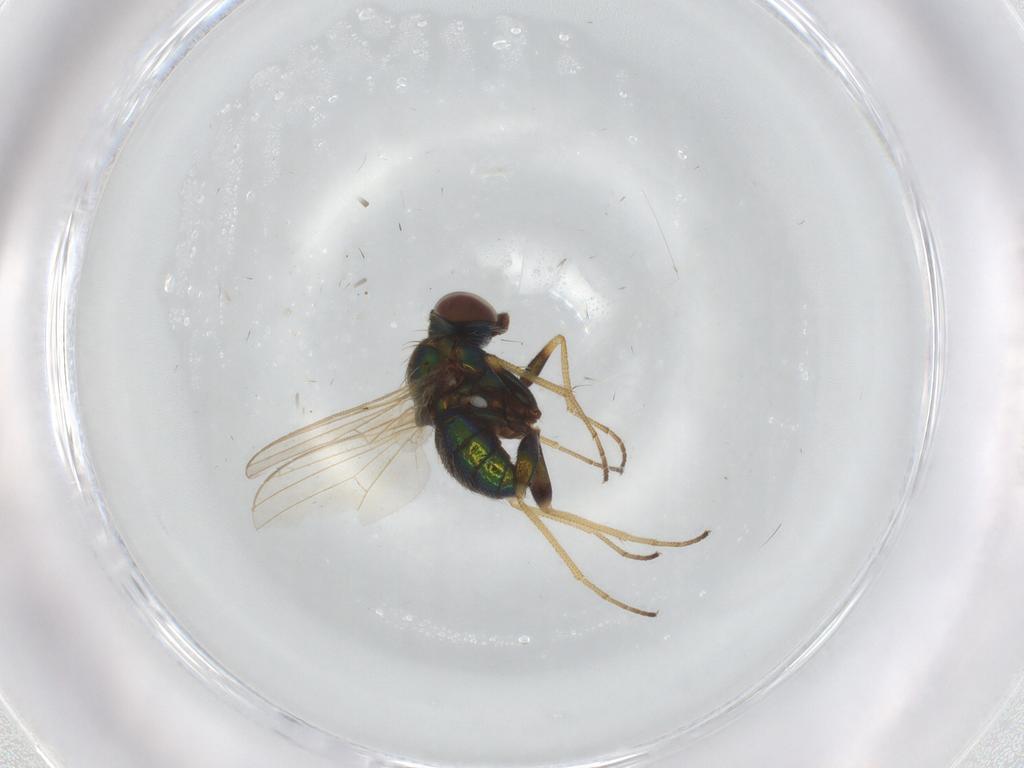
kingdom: Animalia
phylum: Arthropoda
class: Insecta
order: Diptera
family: Dolichopodidae
